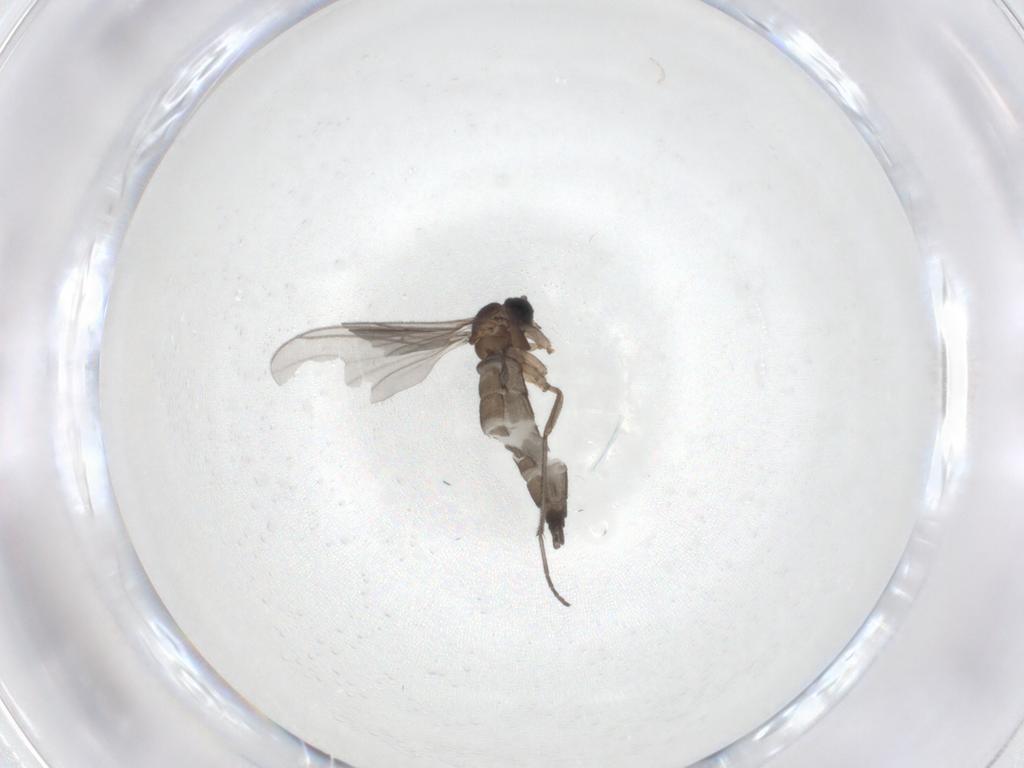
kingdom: Animalia
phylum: Arthropoda
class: Insecta
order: Diptera
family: Sciaridae
